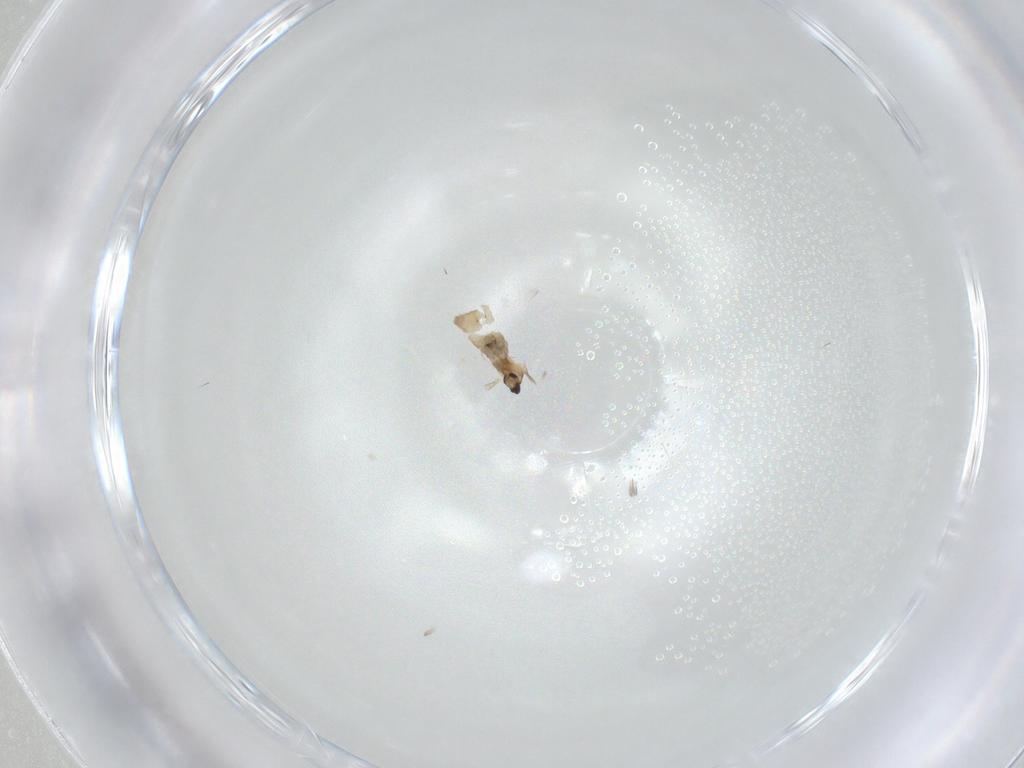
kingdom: Animalia
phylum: Arthropoda
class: Insecta
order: Diptera
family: Cecidomyiidae
